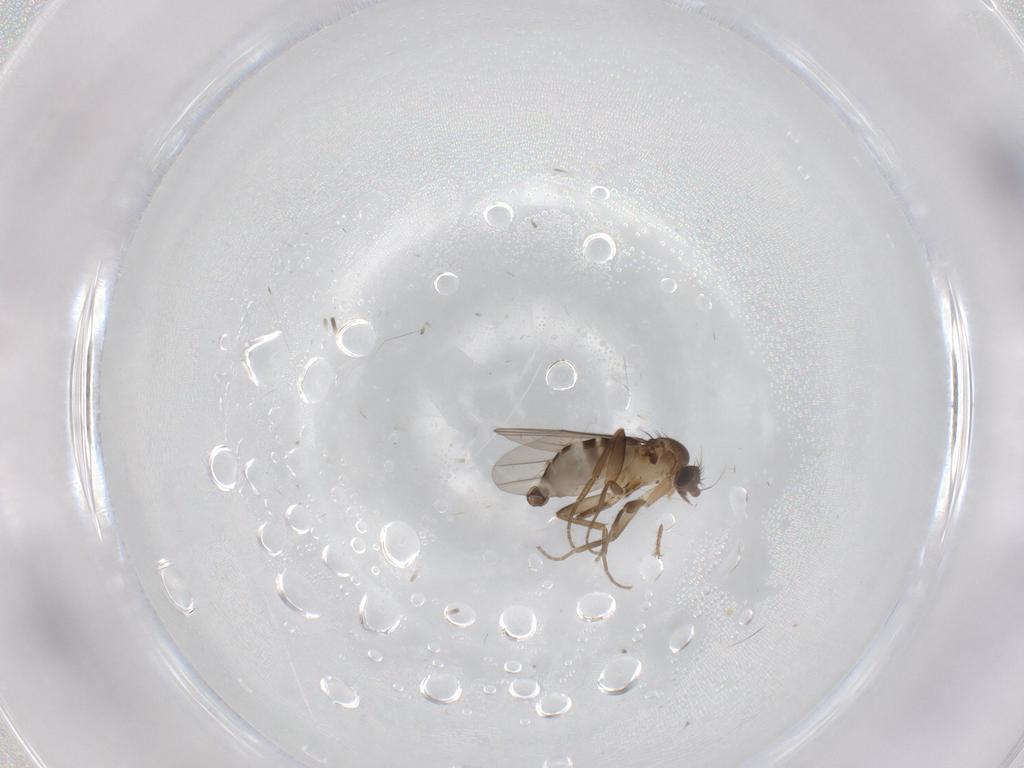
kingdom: Animalia
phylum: Arthropoda
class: Insecta
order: Diptera
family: Phoridae
